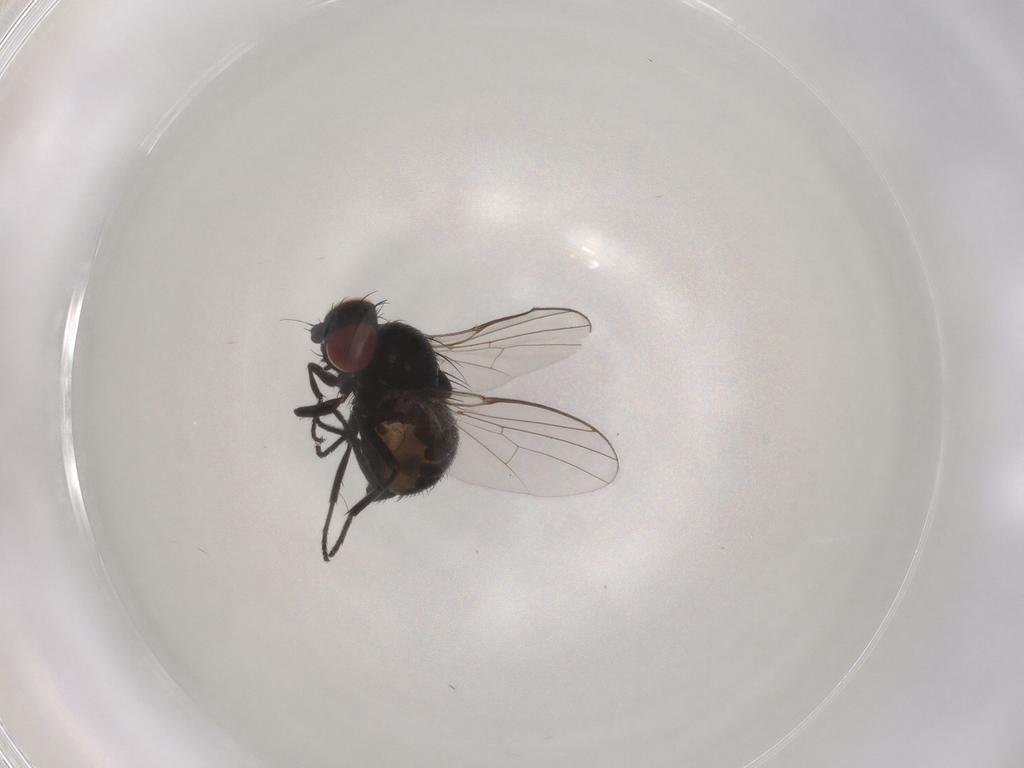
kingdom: Animalia
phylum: Arthropoda
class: Insecta
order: Diptera
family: Agromyzidae
